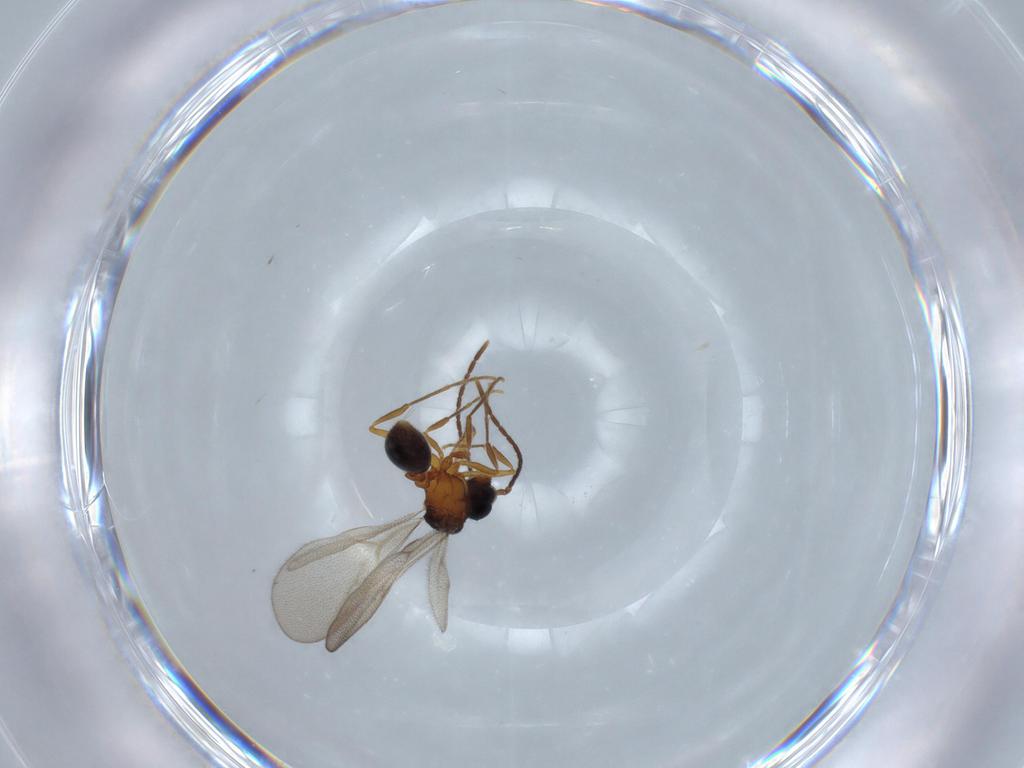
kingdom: Animalia
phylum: Arthropoda
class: Insecta
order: Hymenoptera
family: Formicidae
